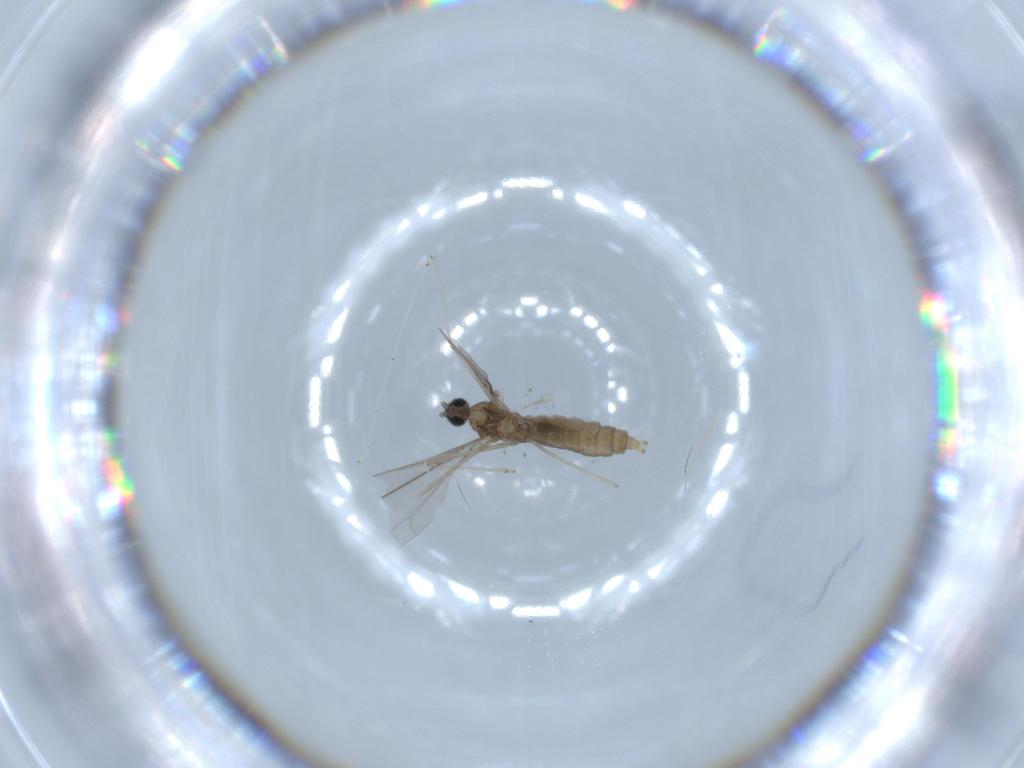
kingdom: Animalia
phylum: Arthropoda
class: Insecta
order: Diptera
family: Cecidomyiidae
